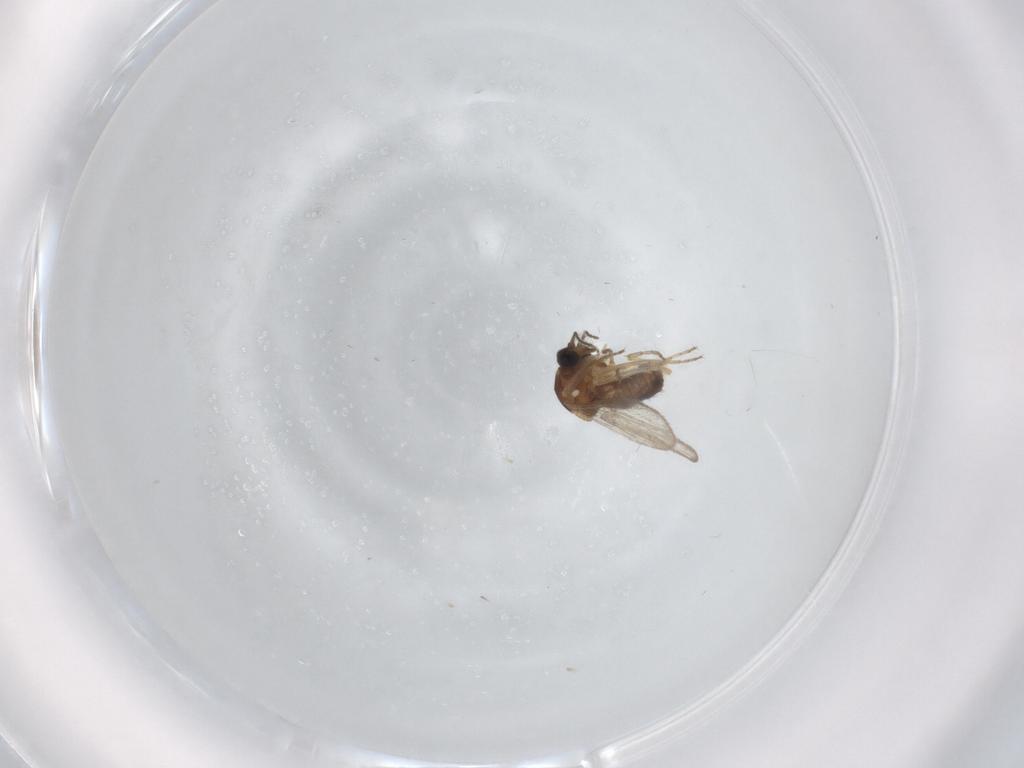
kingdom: Animalia
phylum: Arthropoda
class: Insecta
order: Diptera
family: Ceratopogonidae
